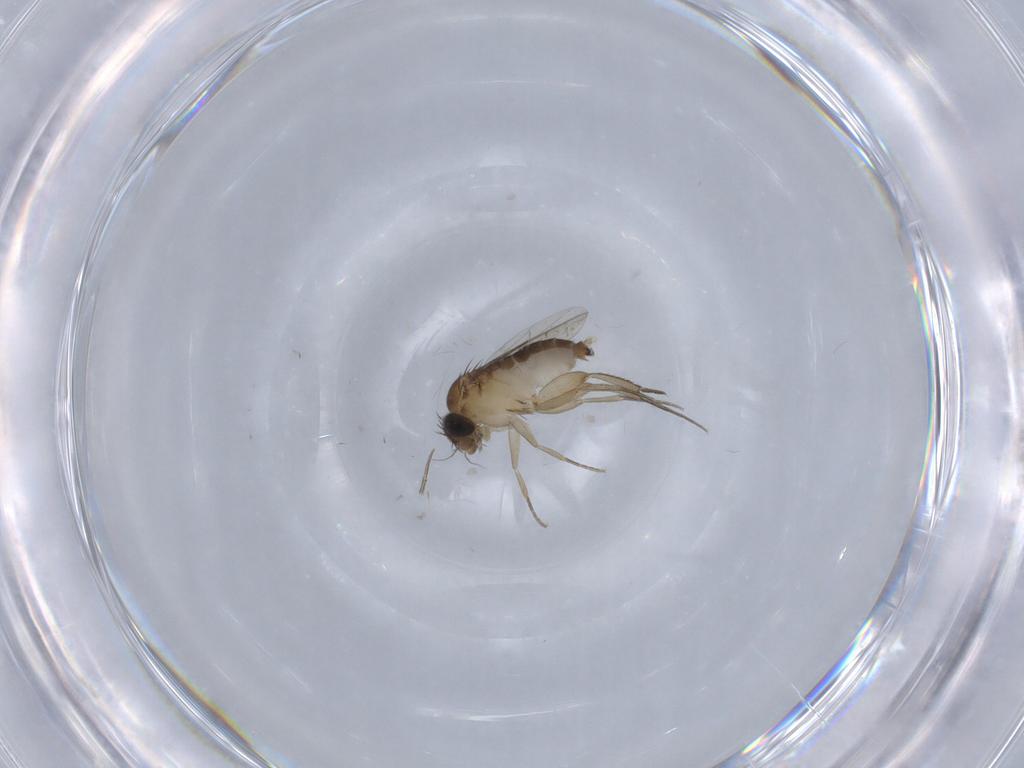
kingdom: Animalia
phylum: Arthropoda
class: Insecta
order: Diptera
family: Phoridae
